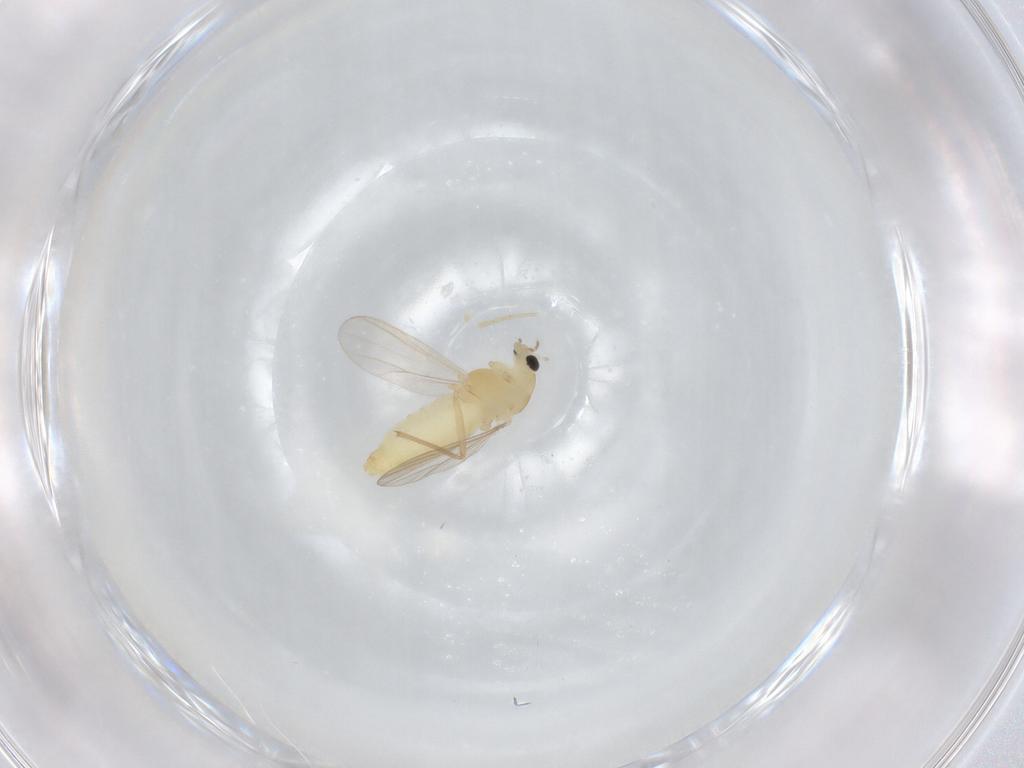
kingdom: Animalia
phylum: Arthropoda
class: Insecta
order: Diptera
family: Chironomidae
